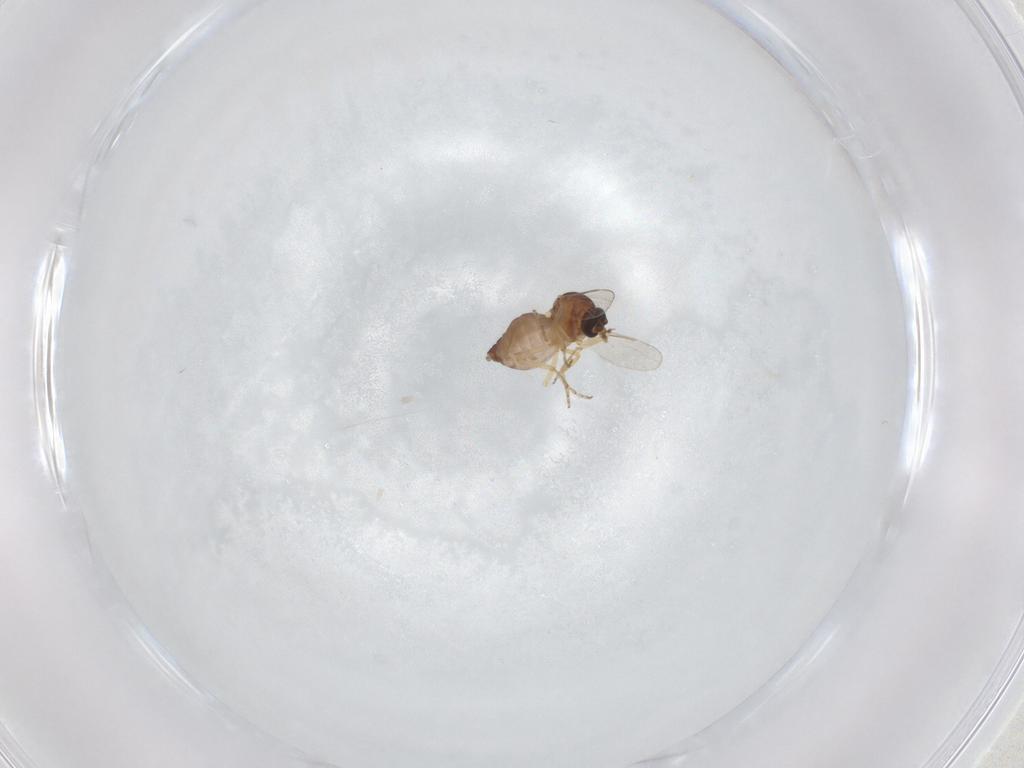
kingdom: Animalia
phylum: Arthropoda
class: Insecta
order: Diptera
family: Ceratopogonidae
